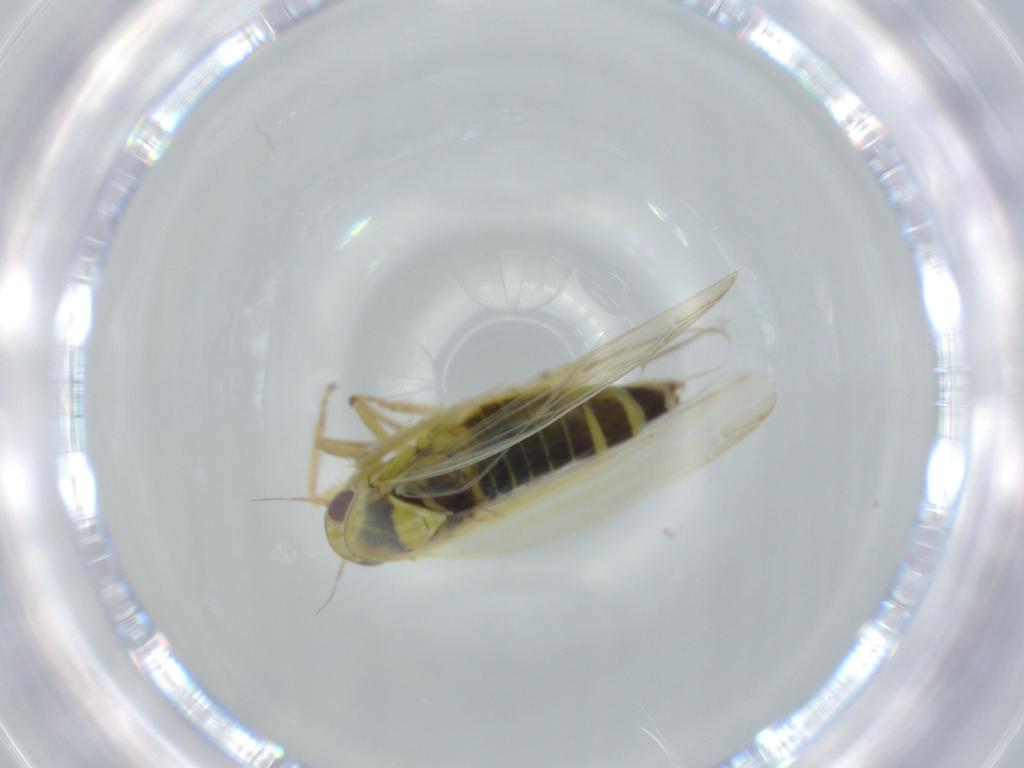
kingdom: Animalia
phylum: Arthropoda
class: Insecta
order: Hemiptera
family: Cicadellidae
